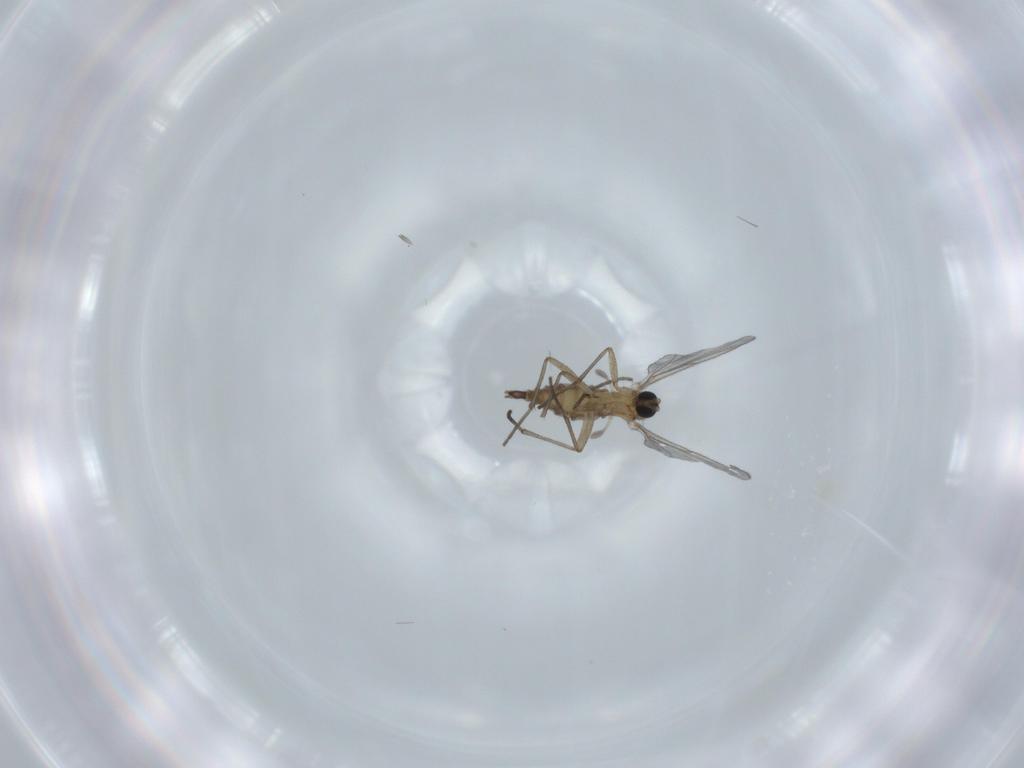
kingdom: Animalia
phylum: Arthropoda
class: Insecta
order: Diptera
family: Sciaridae
